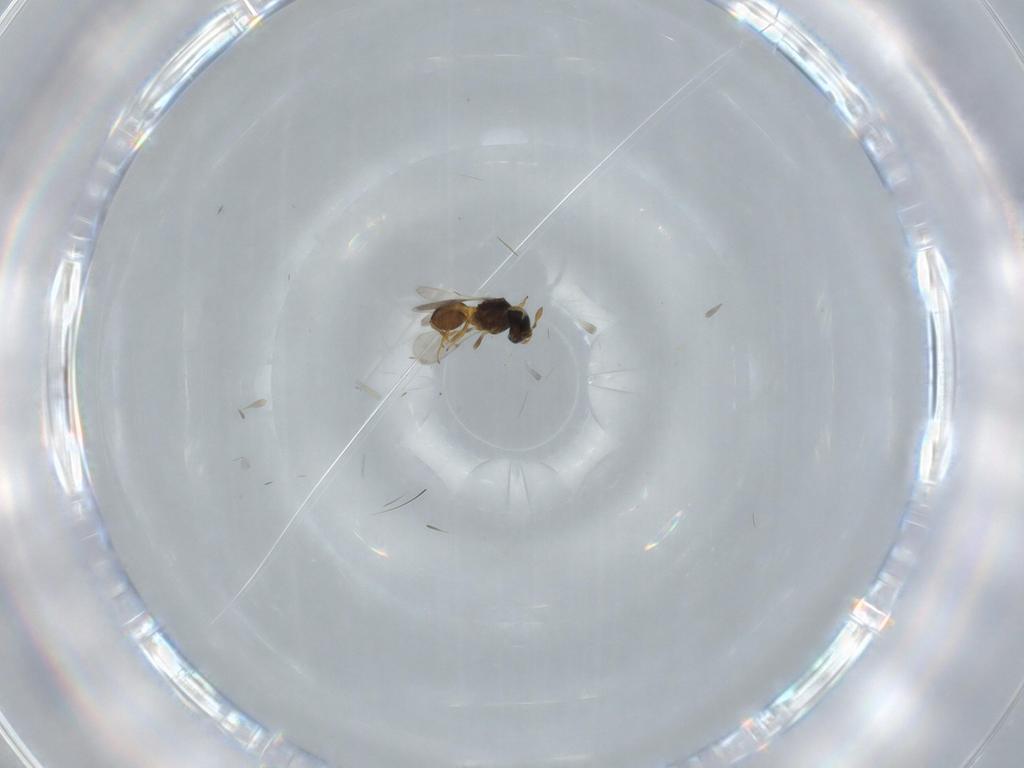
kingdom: Animalia
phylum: Arthropoda
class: Insecta
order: Hymenoptera
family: Scelionidae
